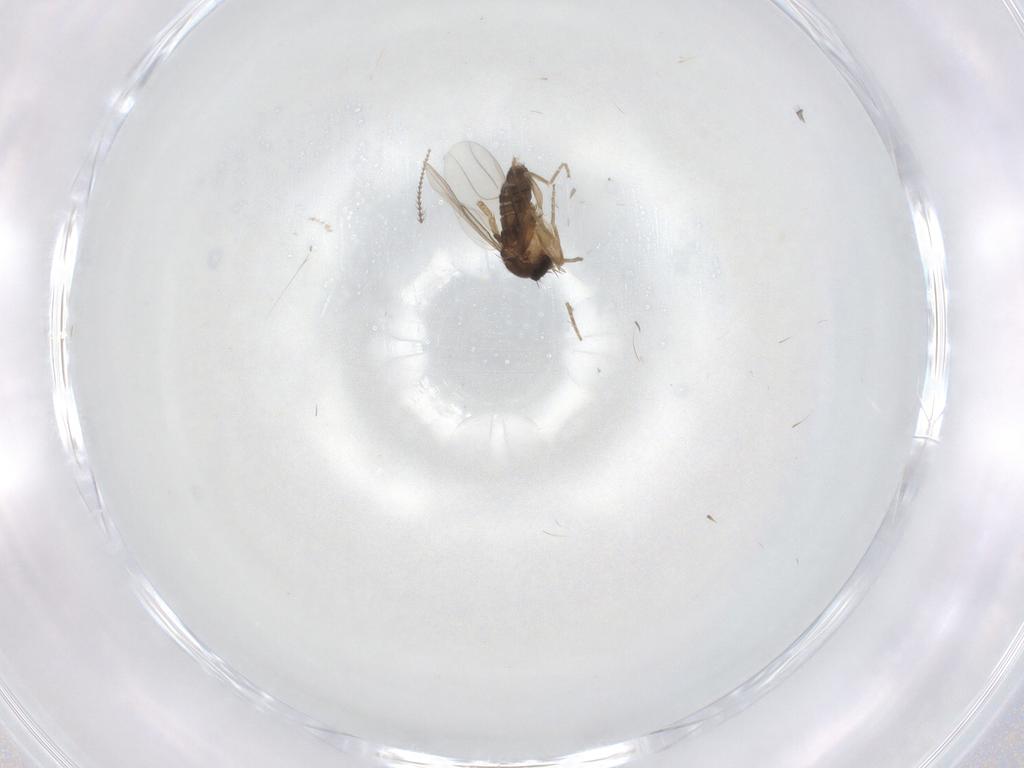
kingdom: Animalia
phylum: Arthropoda
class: Insecta
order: Diptera
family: Phoridae
